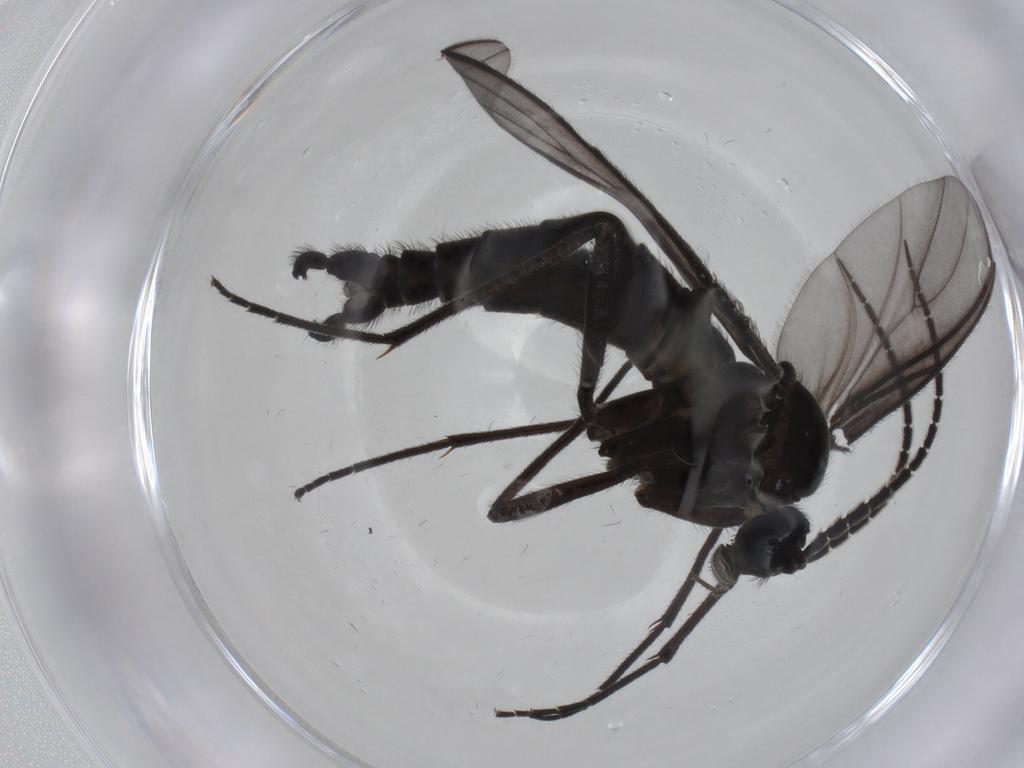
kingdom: Animalia
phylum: Arthropoda
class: Insecta
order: Diptera
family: Sciaridae
